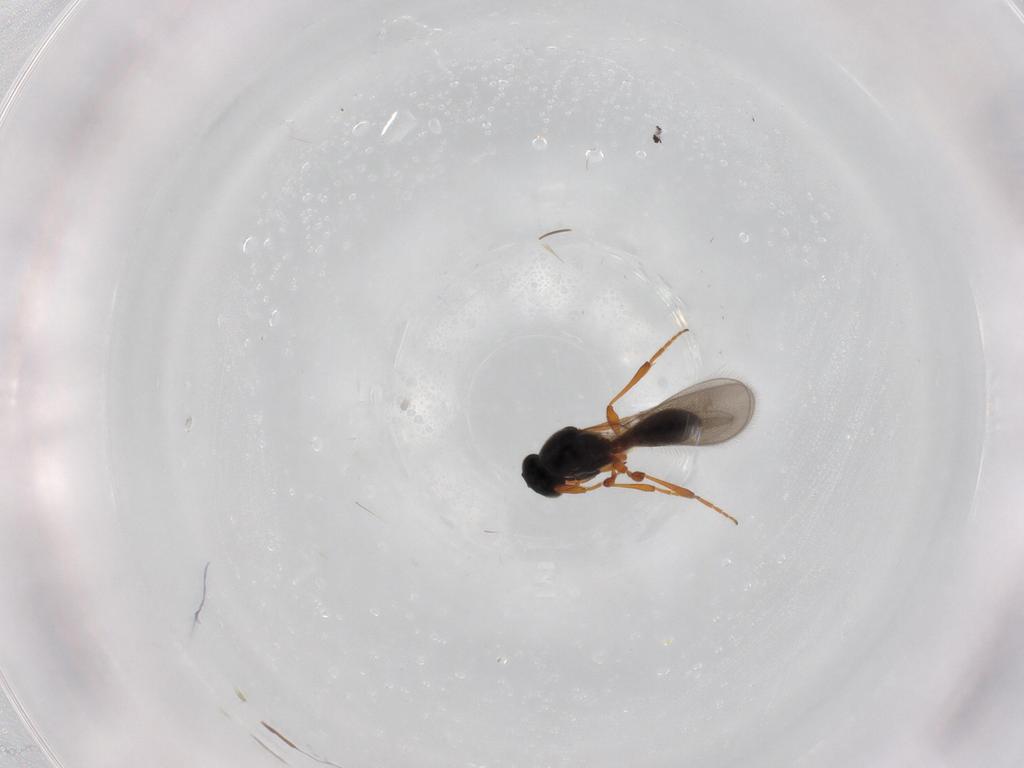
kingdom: Animalia
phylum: Arthropoda
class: Insecta
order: Hymenoptera
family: Platygastridae
